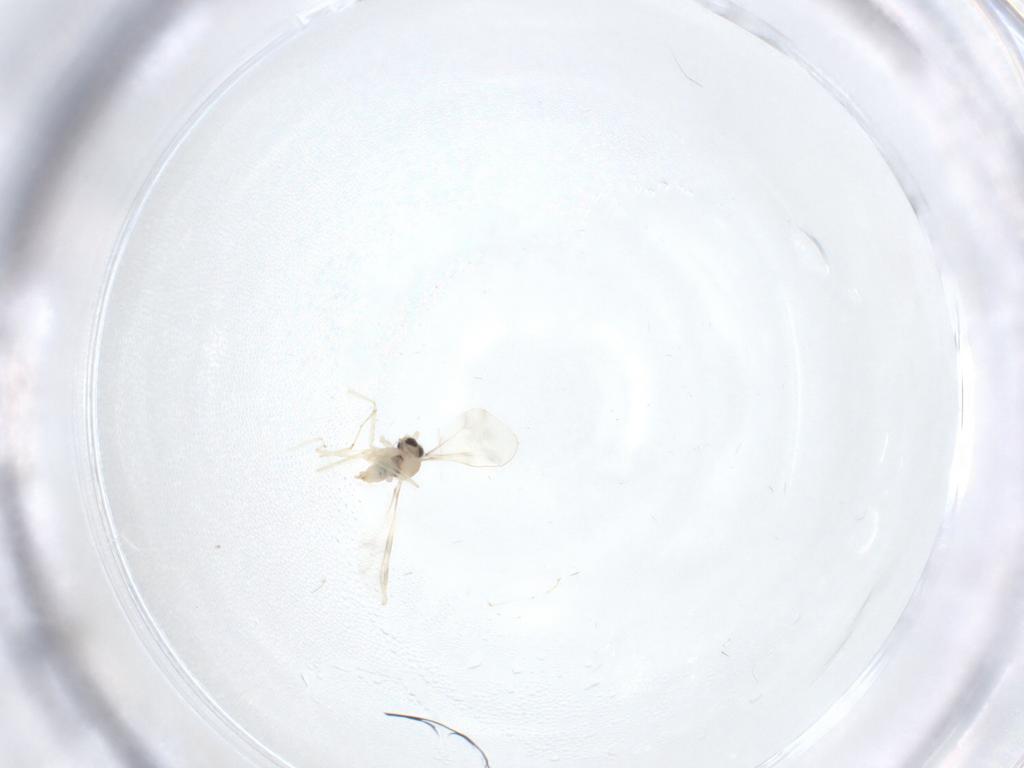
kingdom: Animalia
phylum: Arthropoda
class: Insecta
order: Diptera
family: Cecidomyiidae
